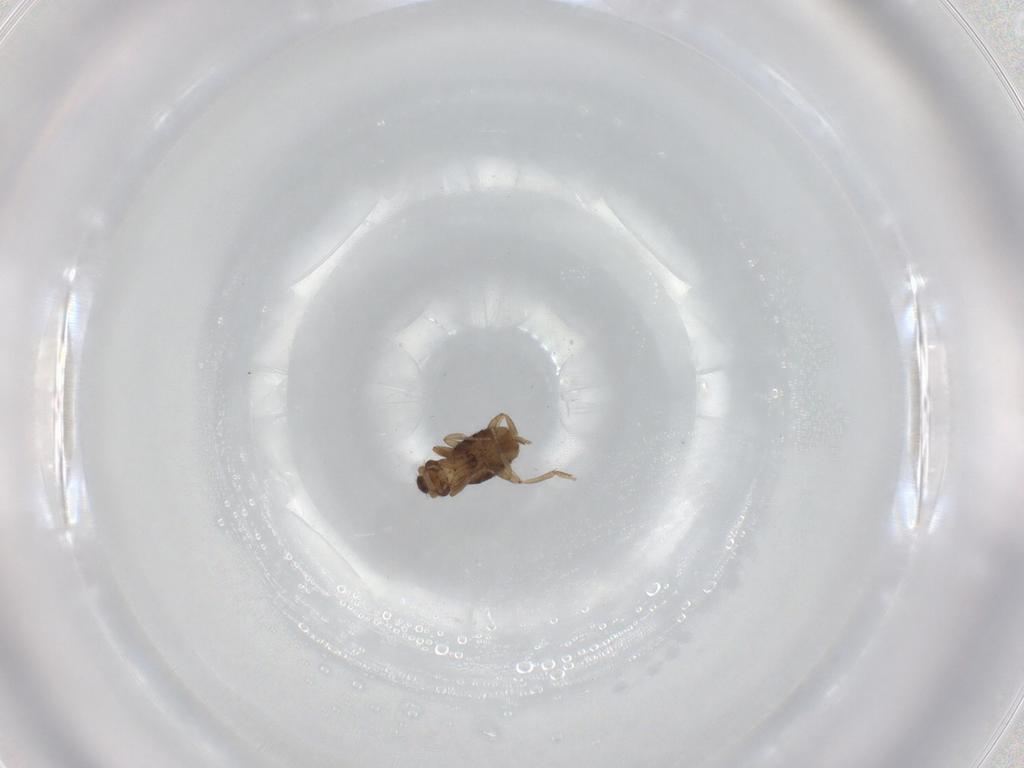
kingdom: Animalia
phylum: Arthropoda
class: Insecta
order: Diptera
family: Phoridae
